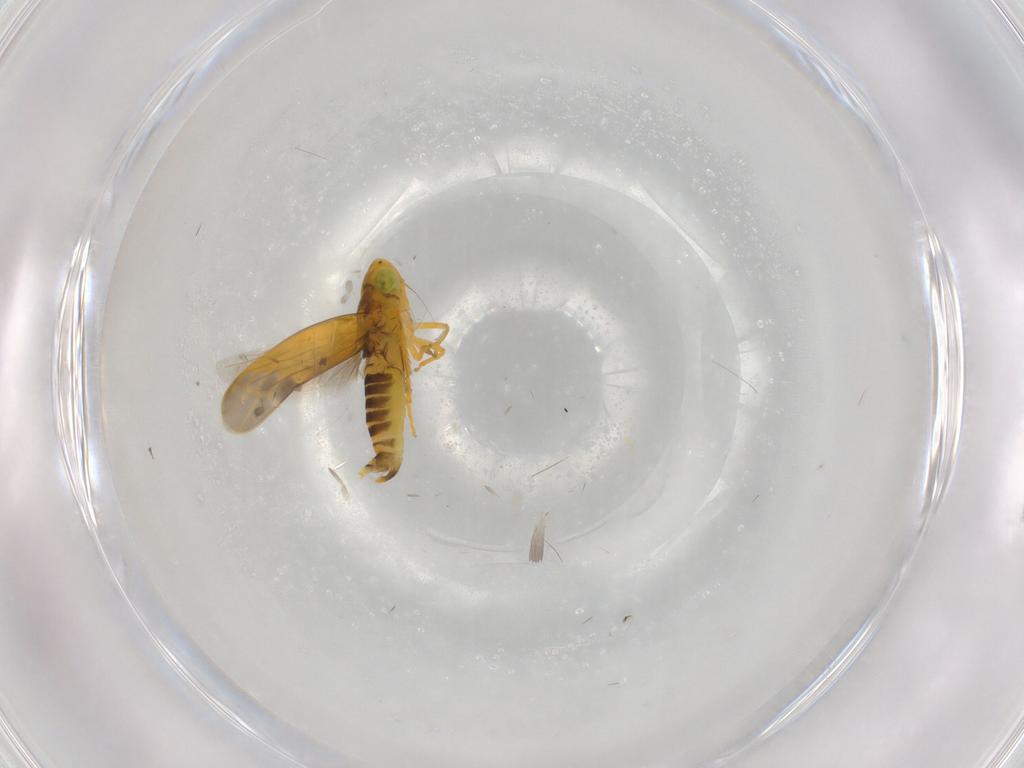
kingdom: Animalia
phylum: Arthropoda
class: Insecta
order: Hemiptera
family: Cicadellidae
